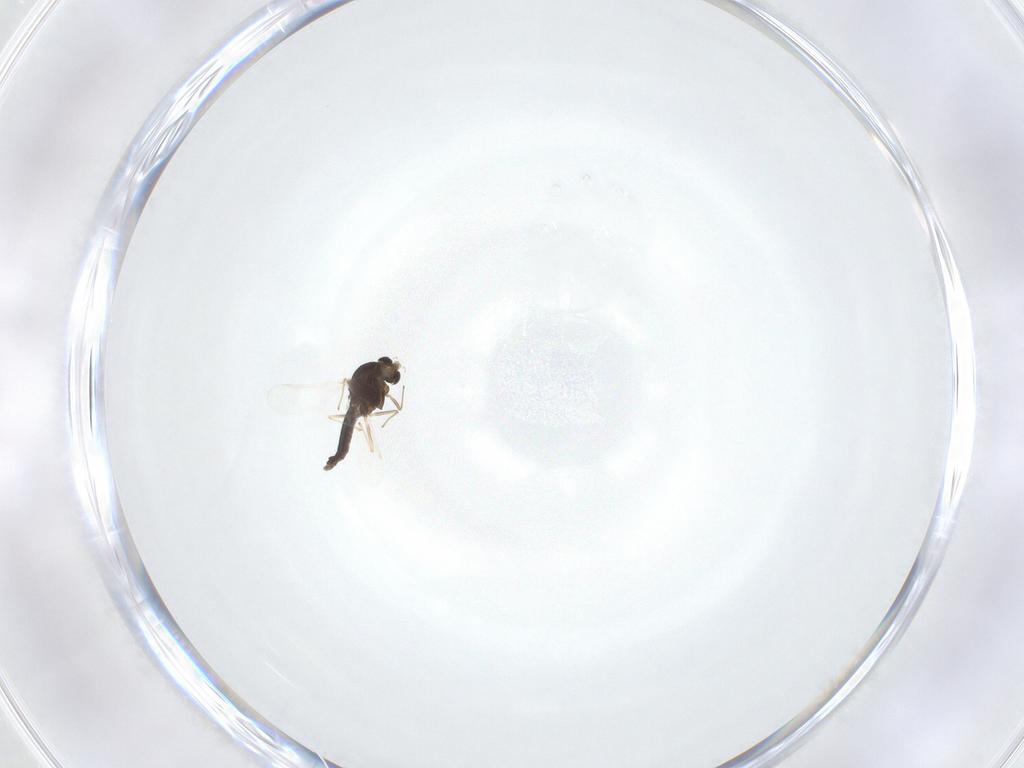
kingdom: Animalia
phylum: Arthropoda
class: Insecta
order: Diptera
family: Chironomidae
